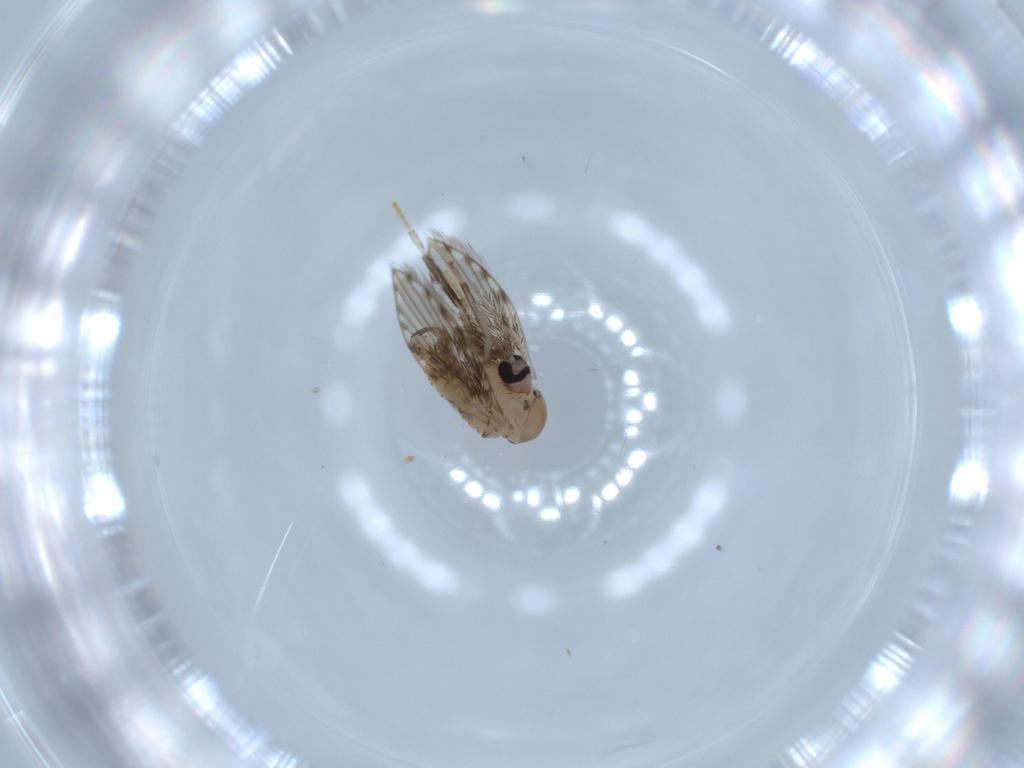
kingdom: Animalia
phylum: Arthropoda
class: Insecta
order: Diptera
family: Psychodidae
